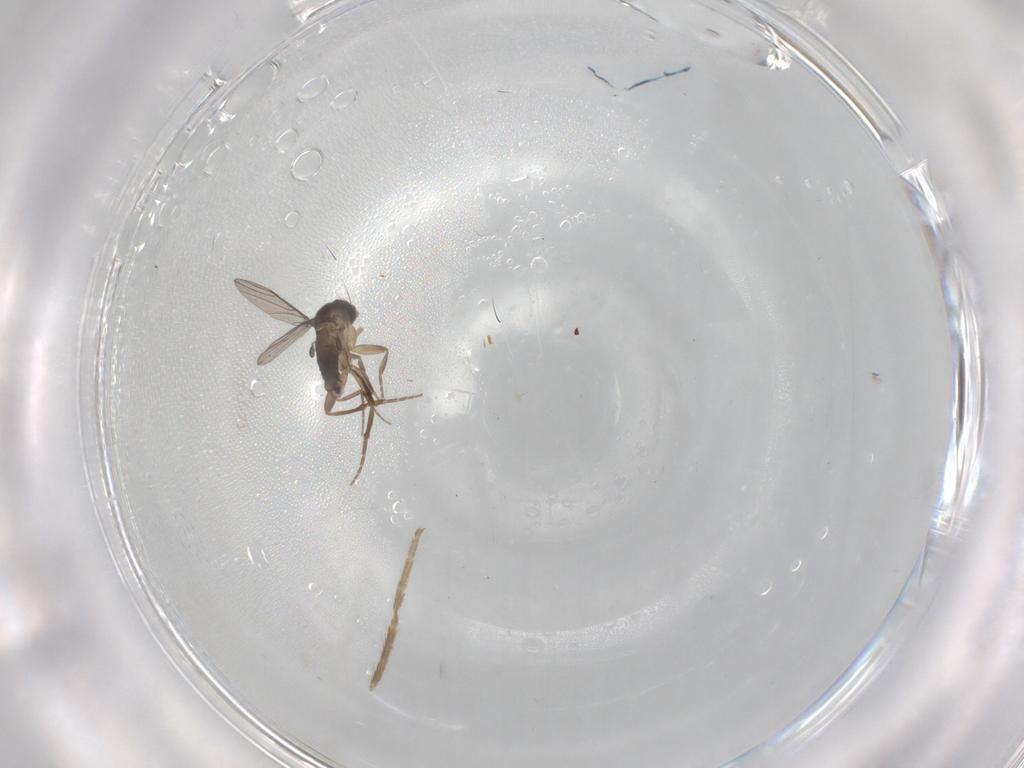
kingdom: Animalia
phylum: Arthropoda
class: Insecta
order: Diptera
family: Chironomidae
